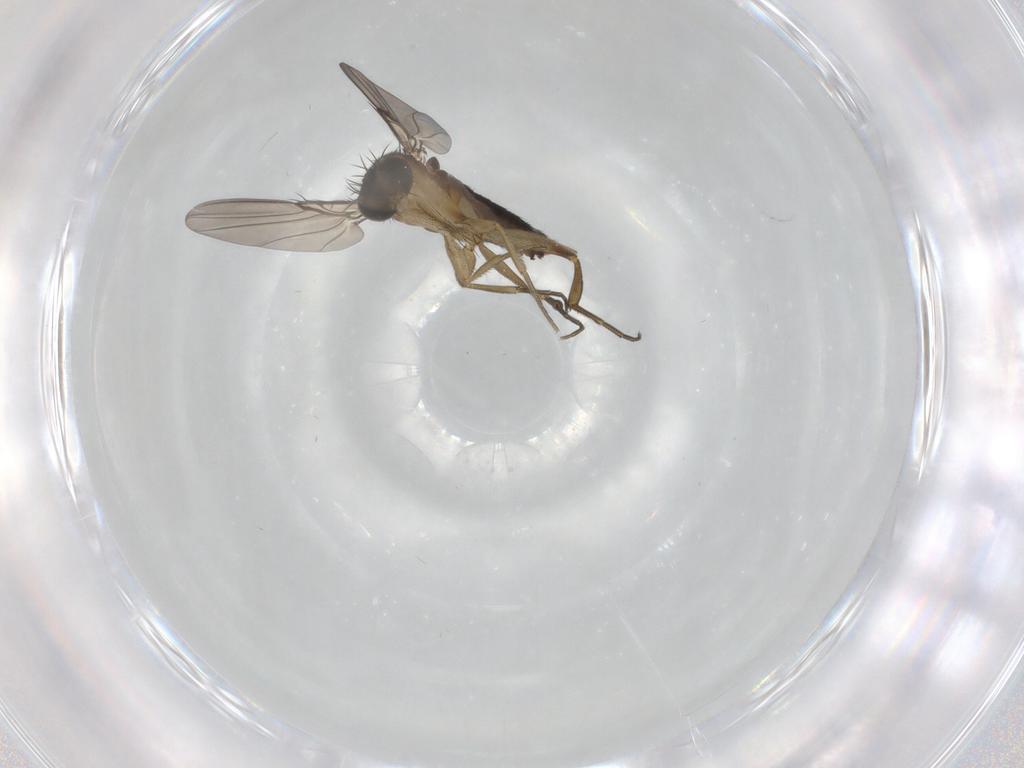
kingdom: Animalia
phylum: Arthropoda
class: Insecta
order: Diptera
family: Phoridae
